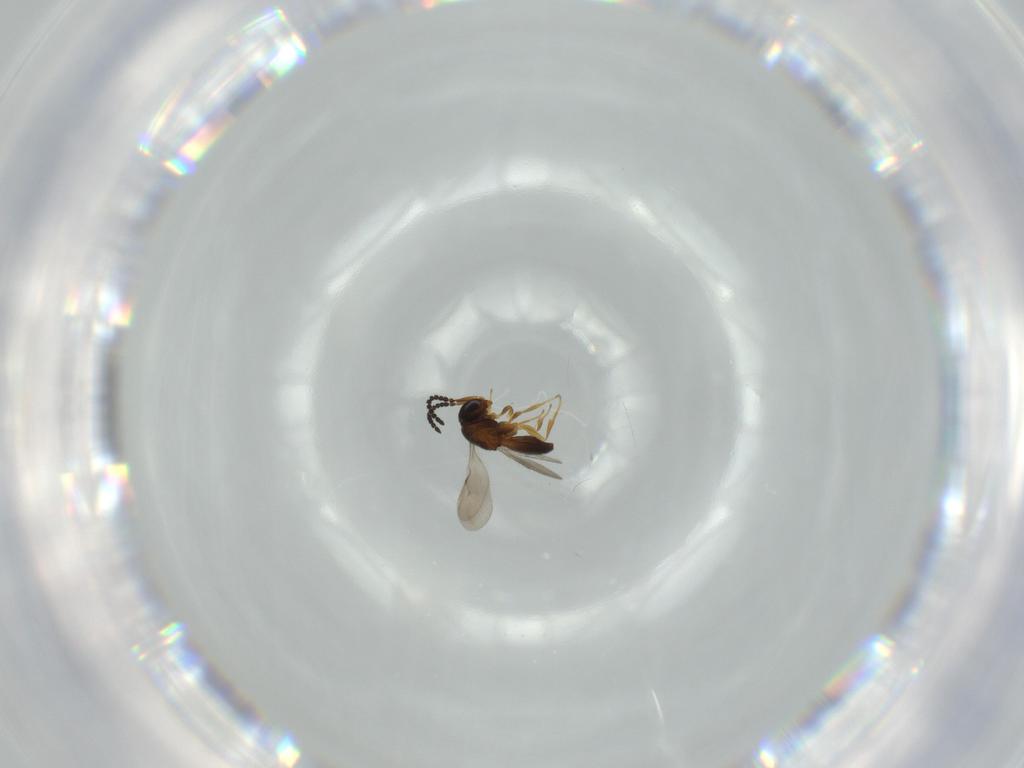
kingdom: Animalia
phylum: Arthropoda
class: Insecta
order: Hymenoptera
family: Scelionidae
